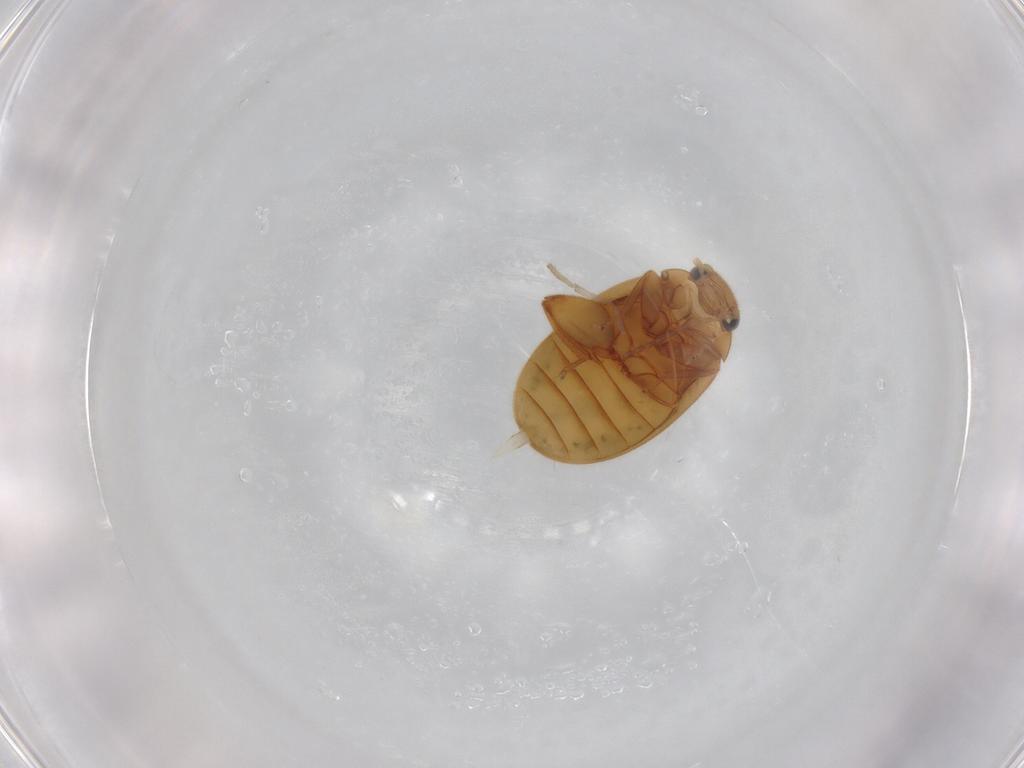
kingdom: Animalia
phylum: Arthropoda
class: Insecta
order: Coleoptera
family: Scirtidae
